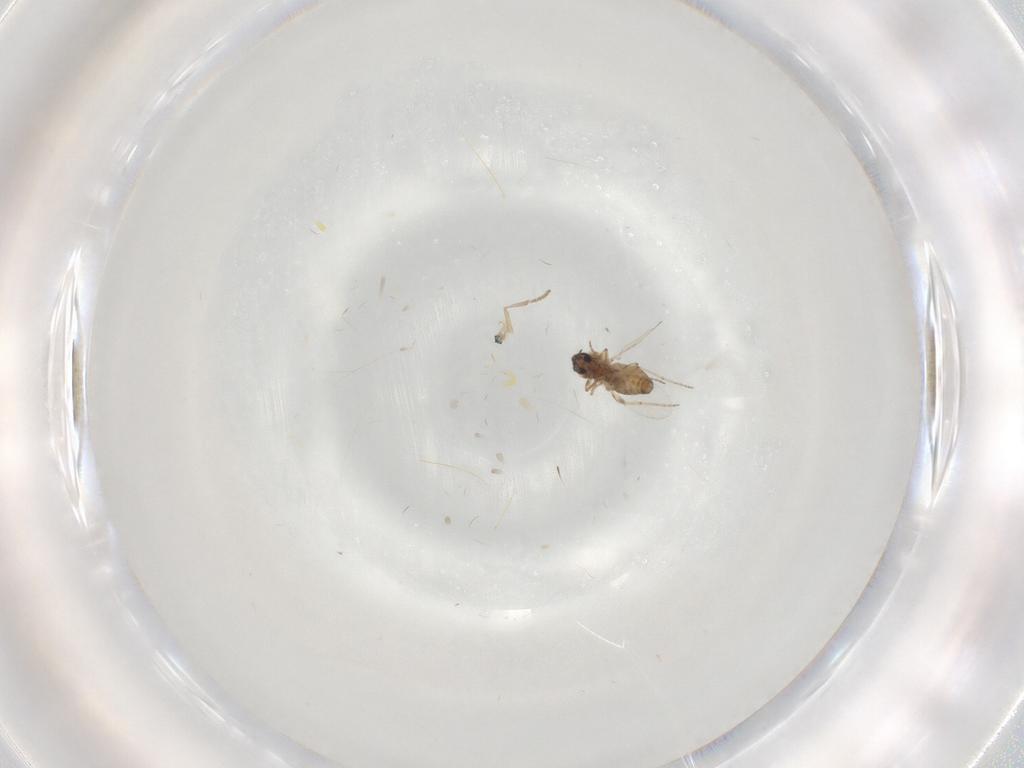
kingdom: Animalia
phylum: Arthropoda
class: Insecta
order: Diptera
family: Psychodidae
